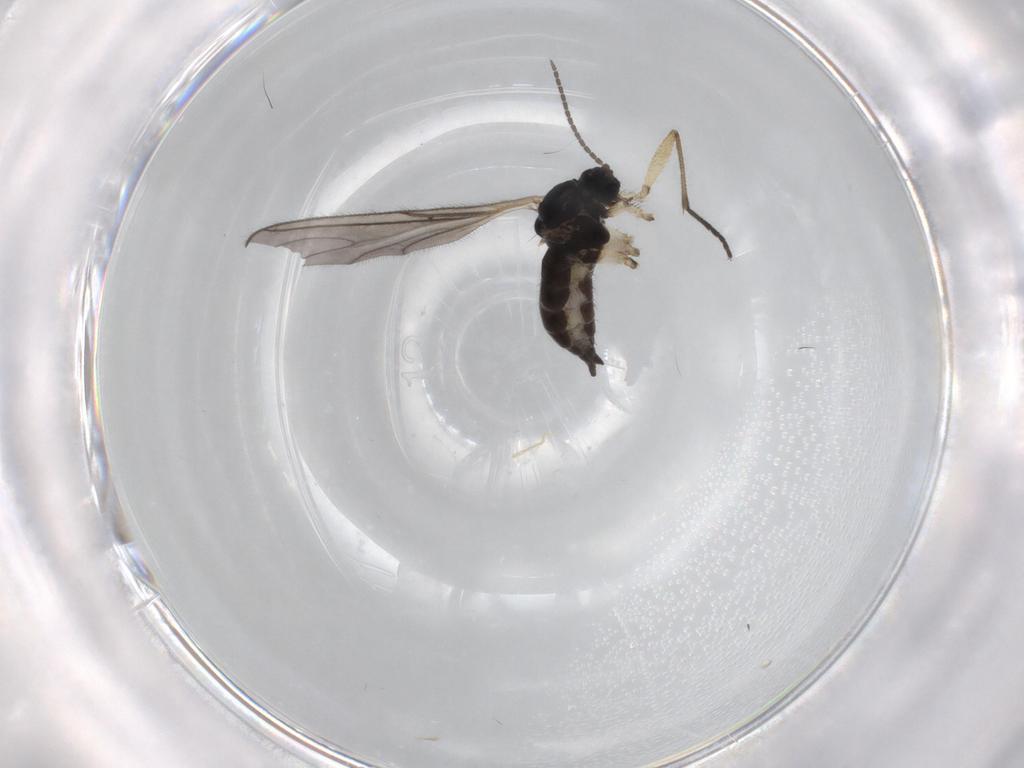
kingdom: Animalia
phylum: Arthropoda
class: Insecta
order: Diptera
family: Sciaridae
